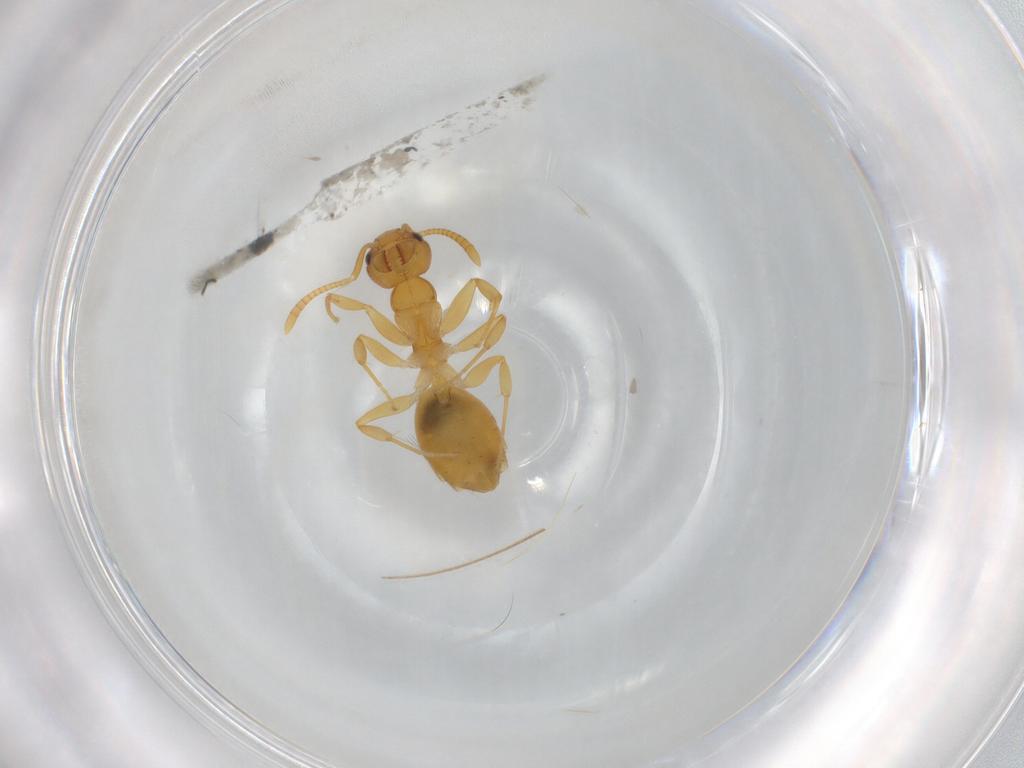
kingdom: Animalia
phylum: Arthropoda
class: Insecta
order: Hymenoptera
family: Formicidae
